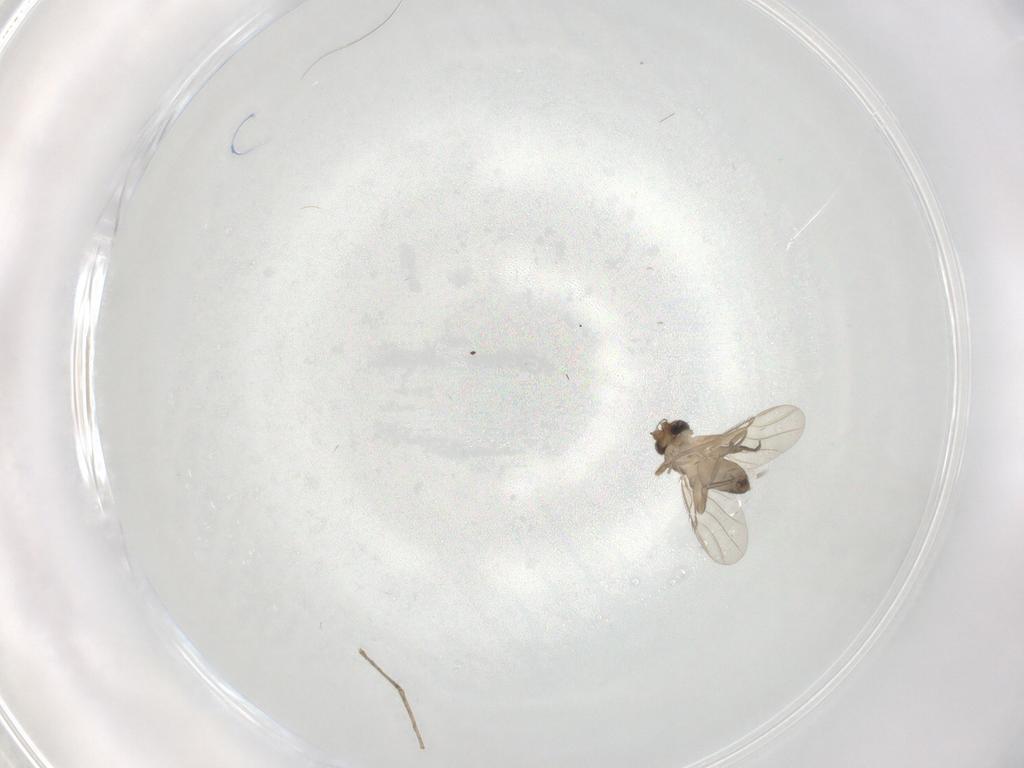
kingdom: Animalia
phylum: Arthropoda
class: Insecta
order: Diptera
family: Phoridae
